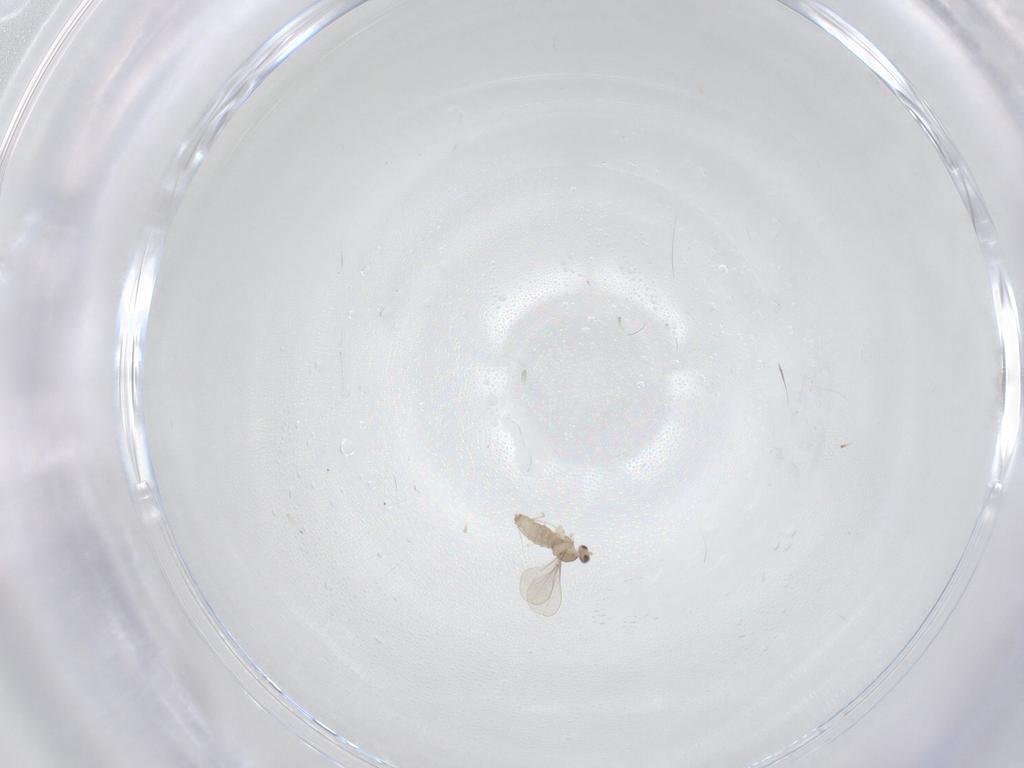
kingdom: Animalia
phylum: Arthropoda
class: Insecta
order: Diptera
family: Cecidomyiidae
